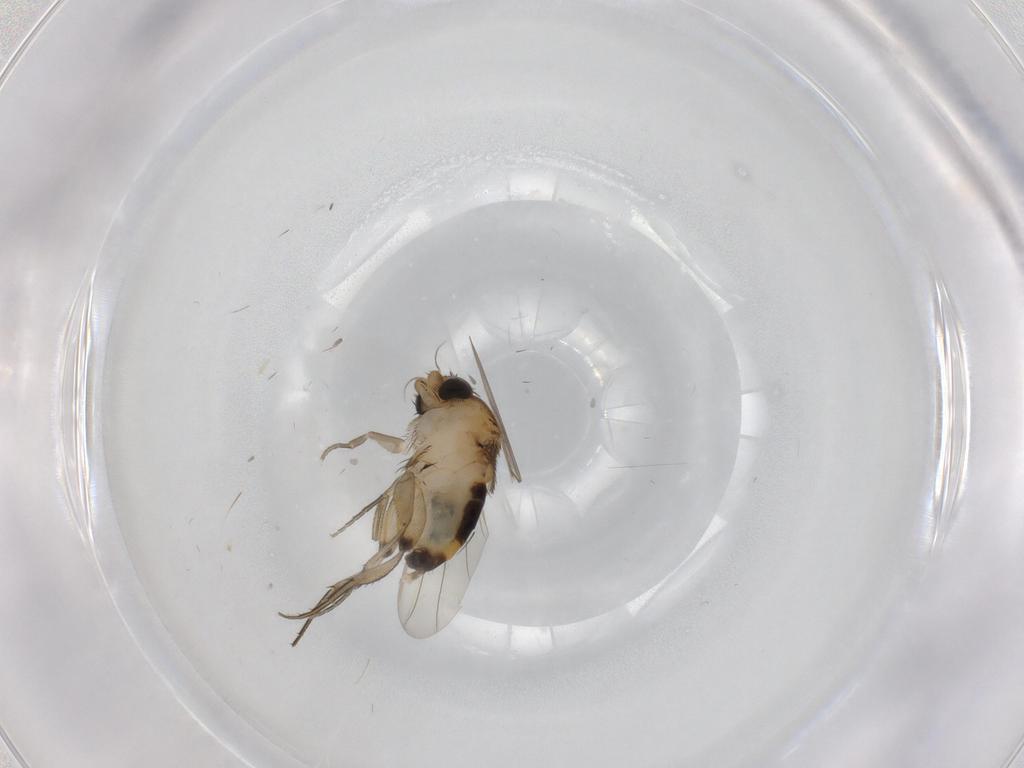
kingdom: Animalia
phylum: Arthropoda
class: Insecta
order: Diptera
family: Phoridae
